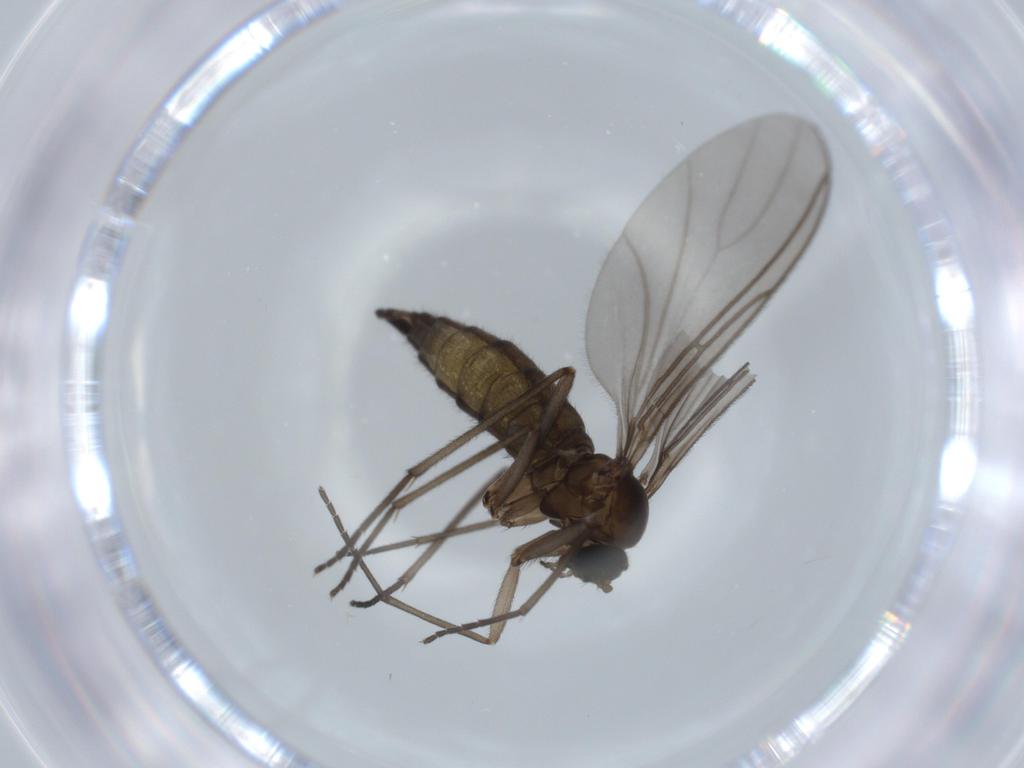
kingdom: Animalia
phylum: Arthropoda
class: Insecta
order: Diptera
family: Sciaridae
